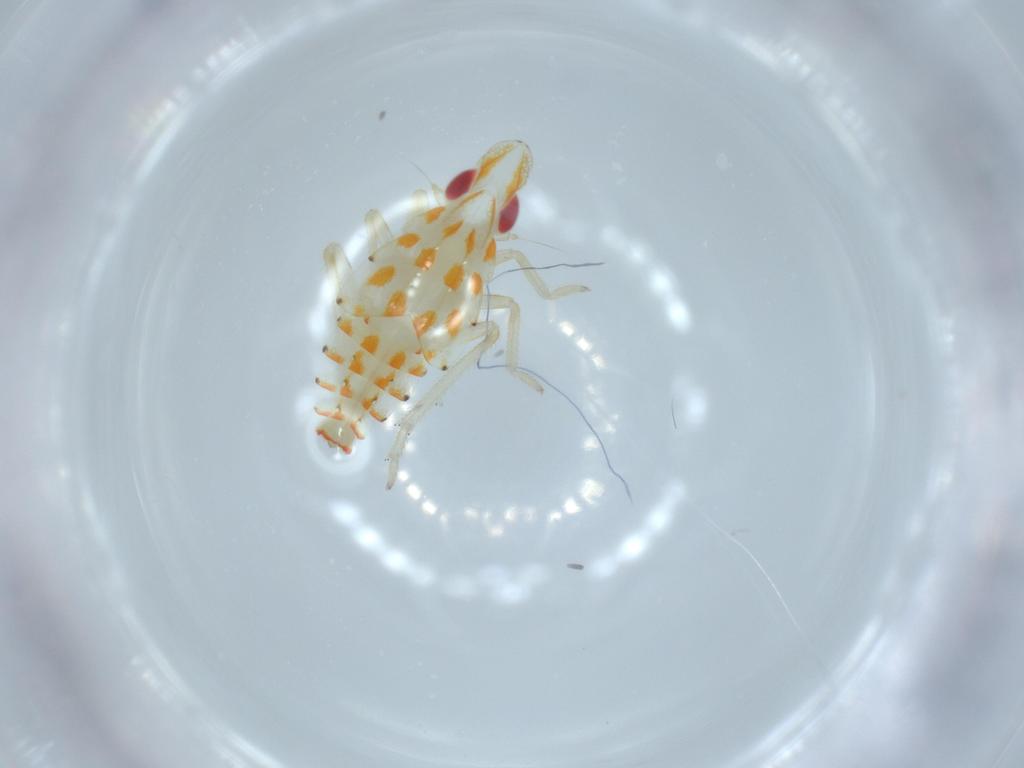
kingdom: Animalia
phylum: Arthropoda
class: Insecta
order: Hemiptera
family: Tropiduchidae
